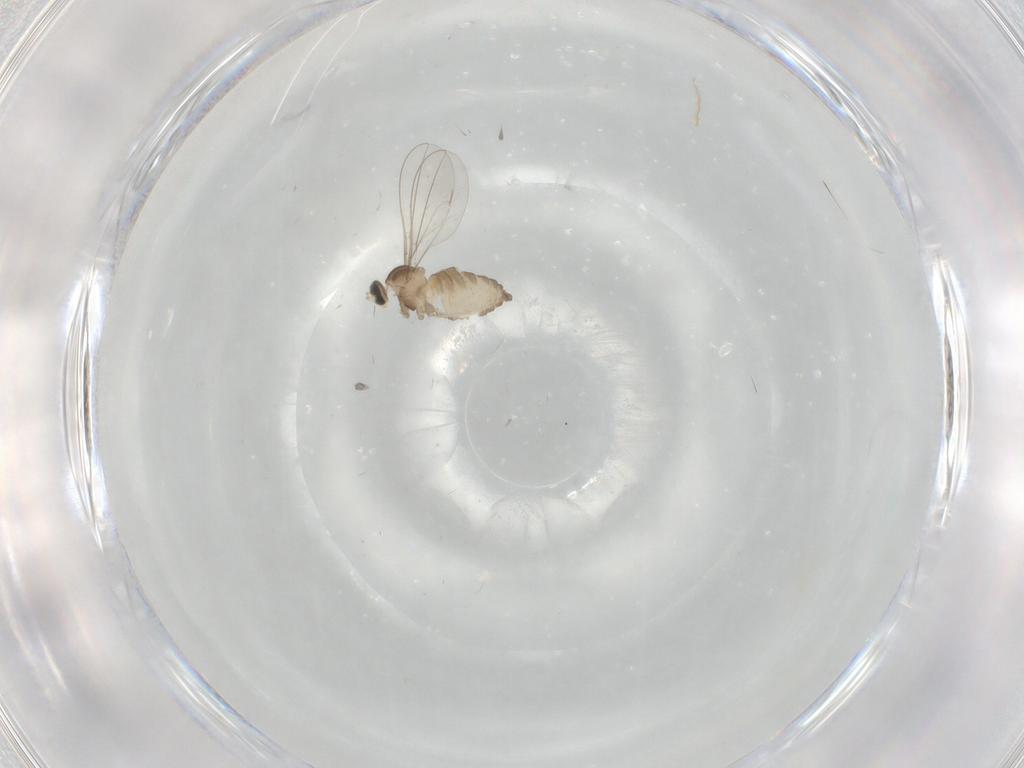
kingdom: Animalia
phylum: Arthropoda
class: Insecta
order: Diptera
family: Cecidomyiidae
